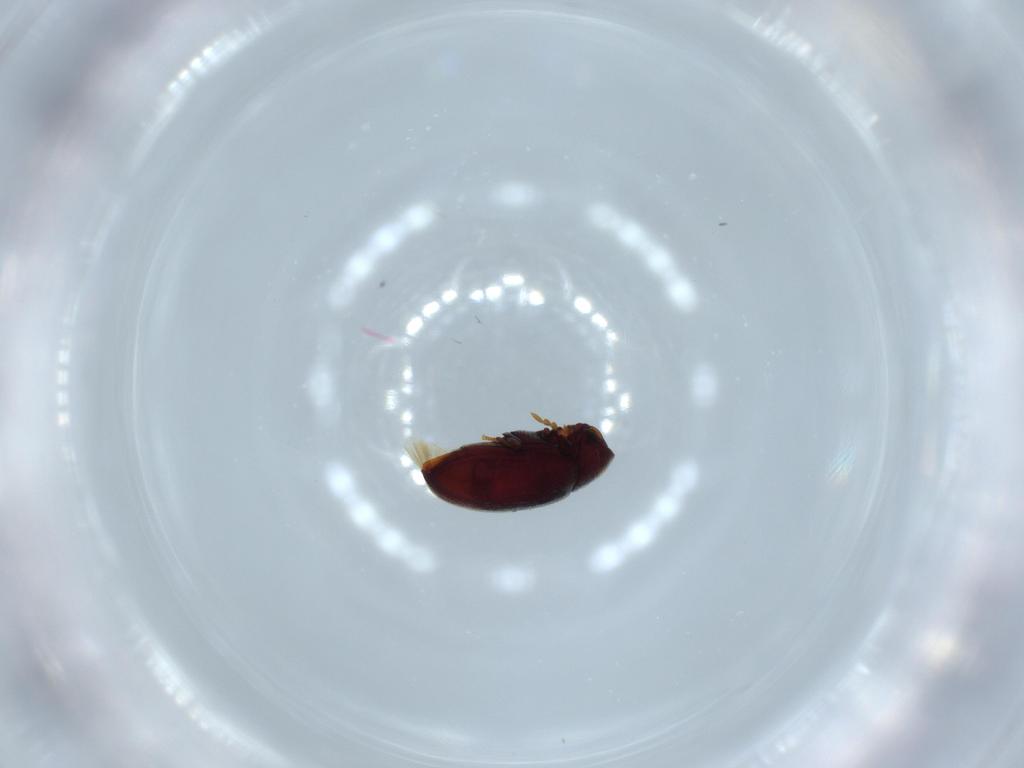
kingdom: Animalia
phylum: Arthropoda
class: Insecta
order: Coleoptera
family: Ptinidae
